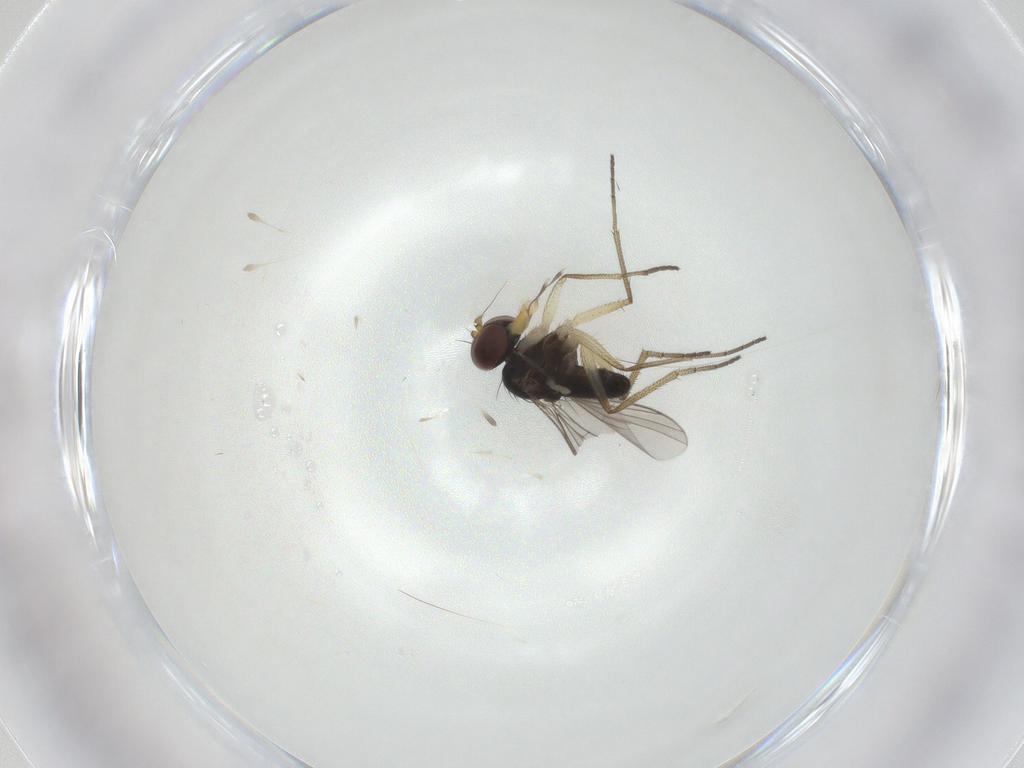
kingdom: Animalia
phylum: Arthropoda
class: Insecta
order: Diptera
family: Dolichopodidae
